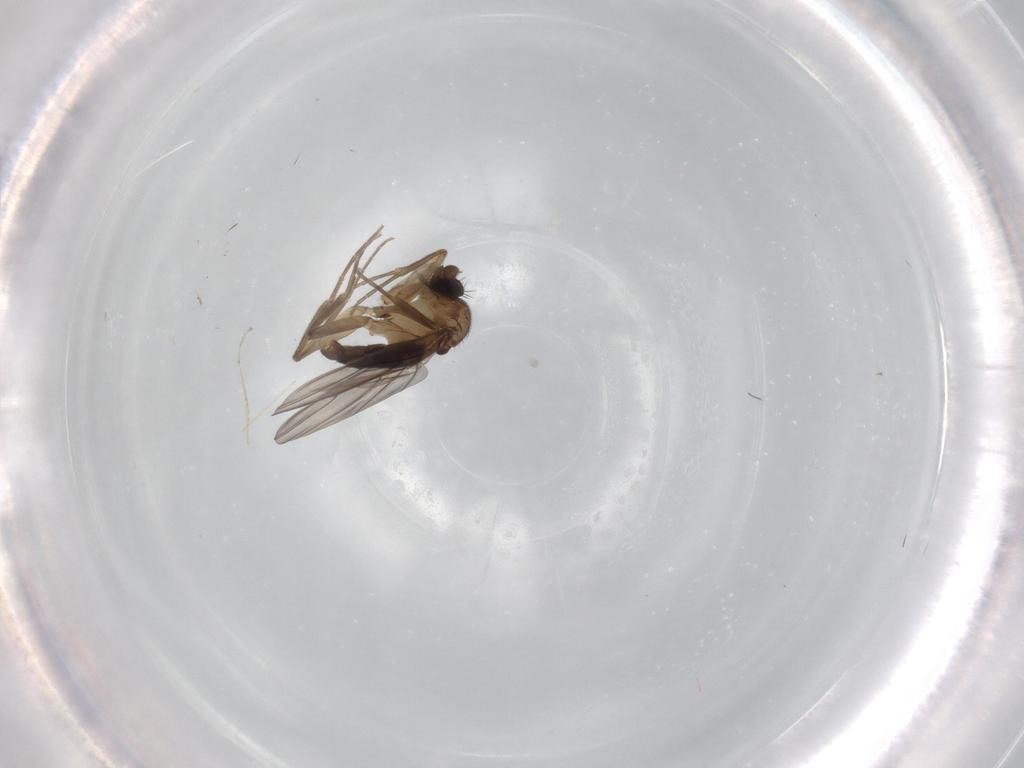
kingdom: Animalia
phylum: Arthropoda
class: Insecta
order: Diptera
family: Phoridae
